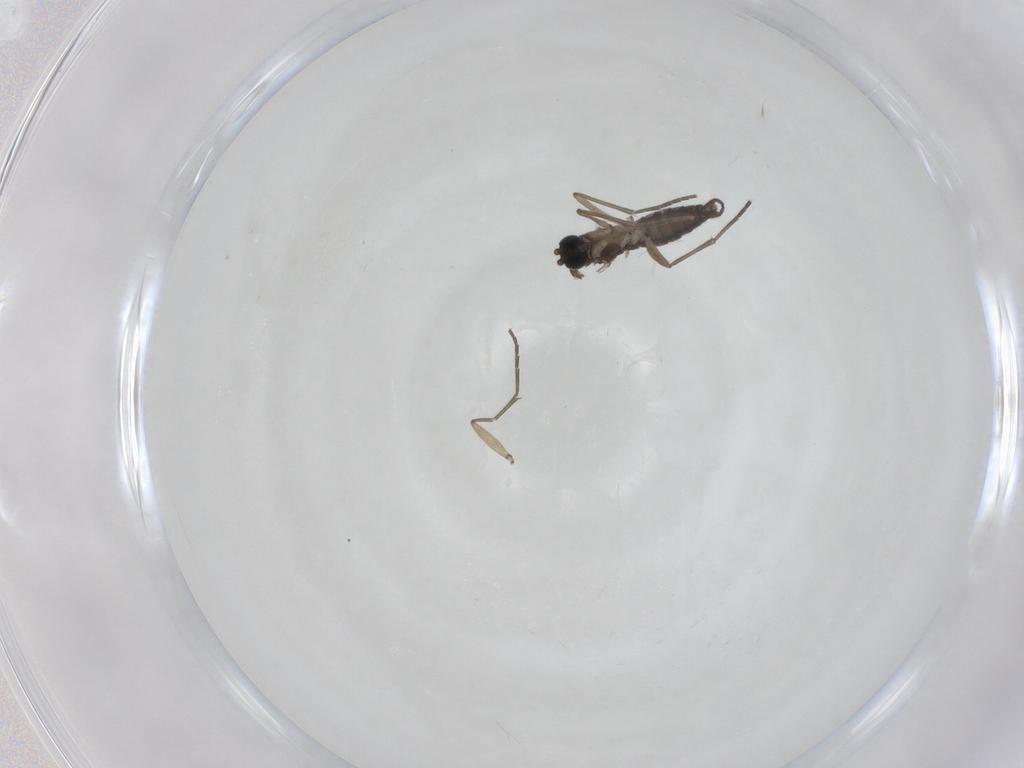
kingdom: Animalia
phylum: Arthropoda
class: Insecta
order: Diptera
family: Sciaridae
